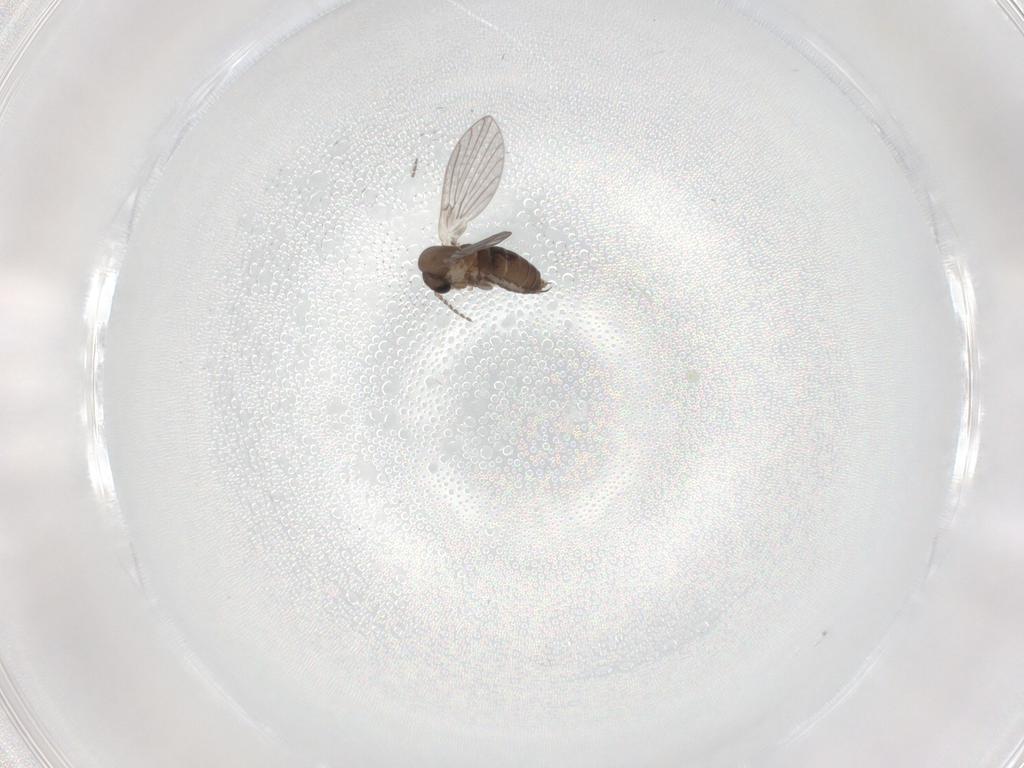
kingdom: Animalia
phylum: Arthropoda
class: Insecta
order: Diptera
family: Psychodidae
